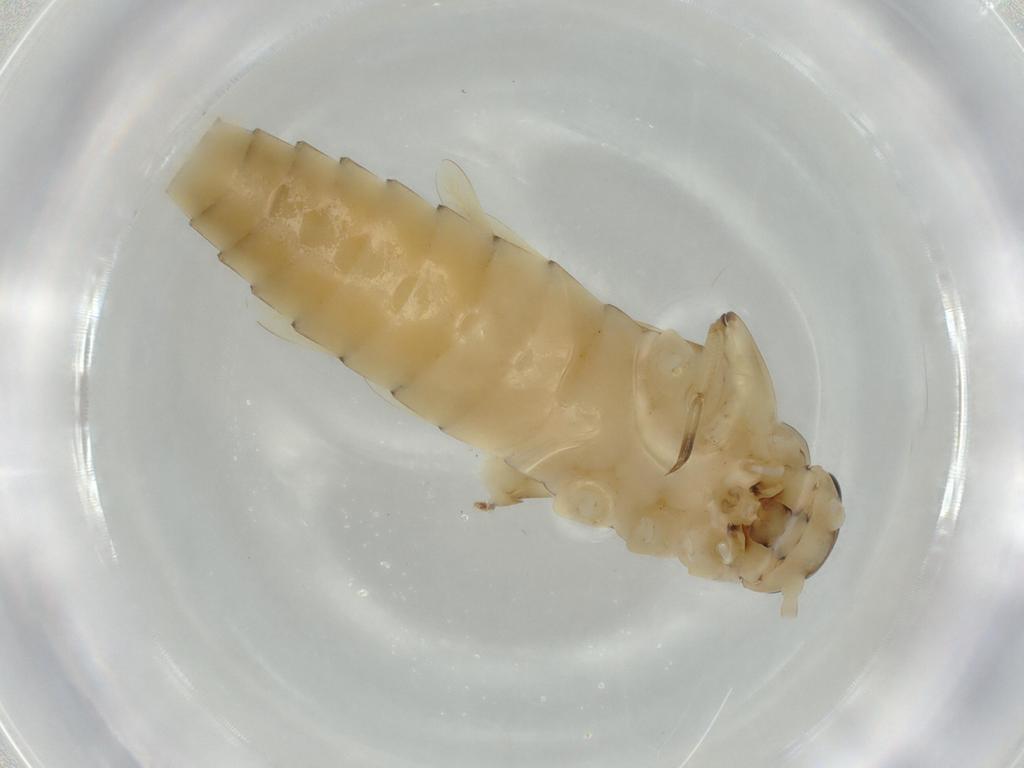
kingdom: Animalia
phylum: Arthropoda
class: Insecta
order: Ephemeroptera
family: Baetidae
